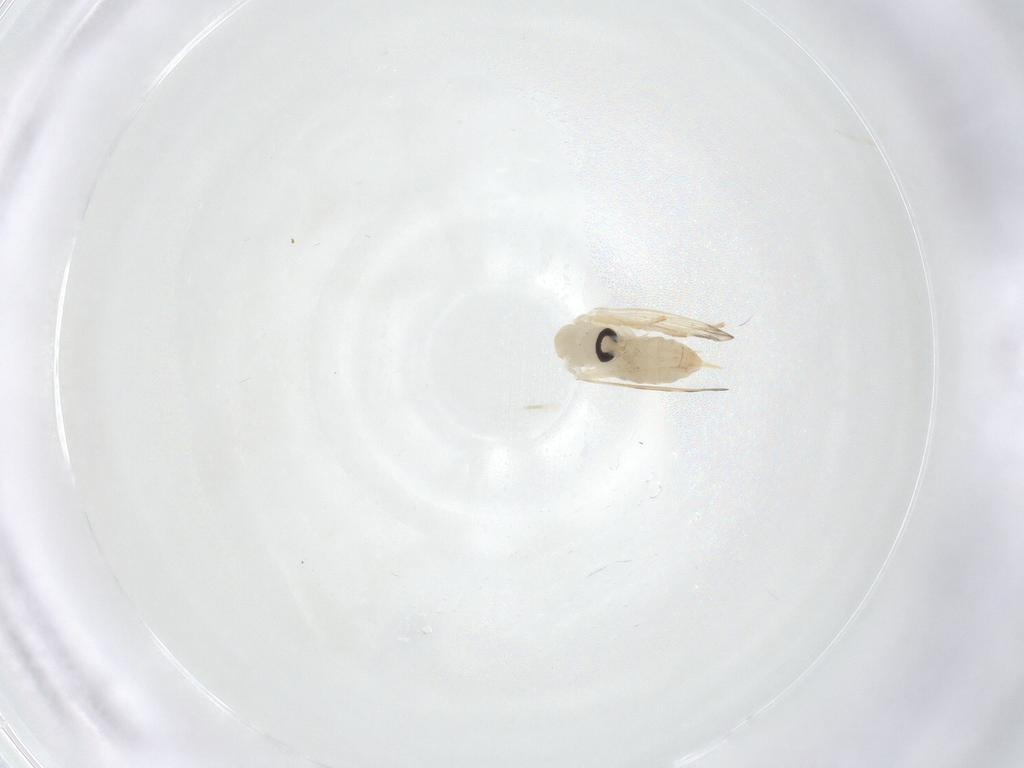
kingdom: Animalia
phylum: Arthropoda
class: Insecta
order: Diptera
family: Psychodidae
